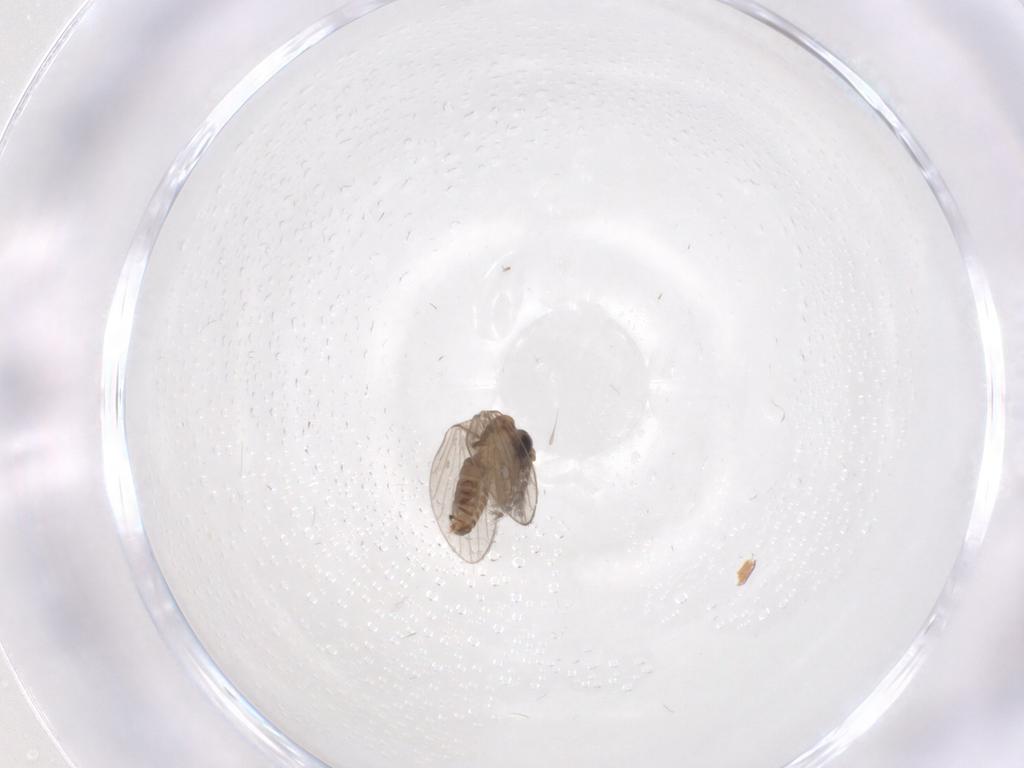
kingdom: Animalia
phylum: Arthropoda
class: Insecta
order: Diptera
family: Psychodidae
